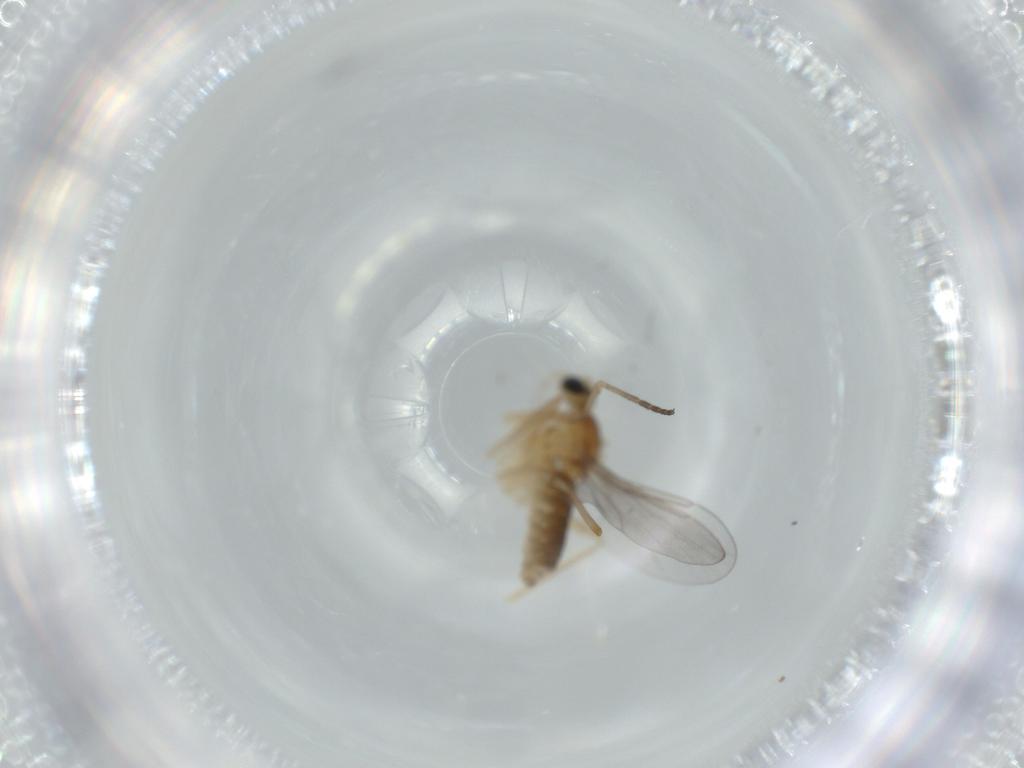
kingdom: Animalia
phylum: Arthropoda
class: Insecta
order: Diptera
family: Cecidomyiidae
